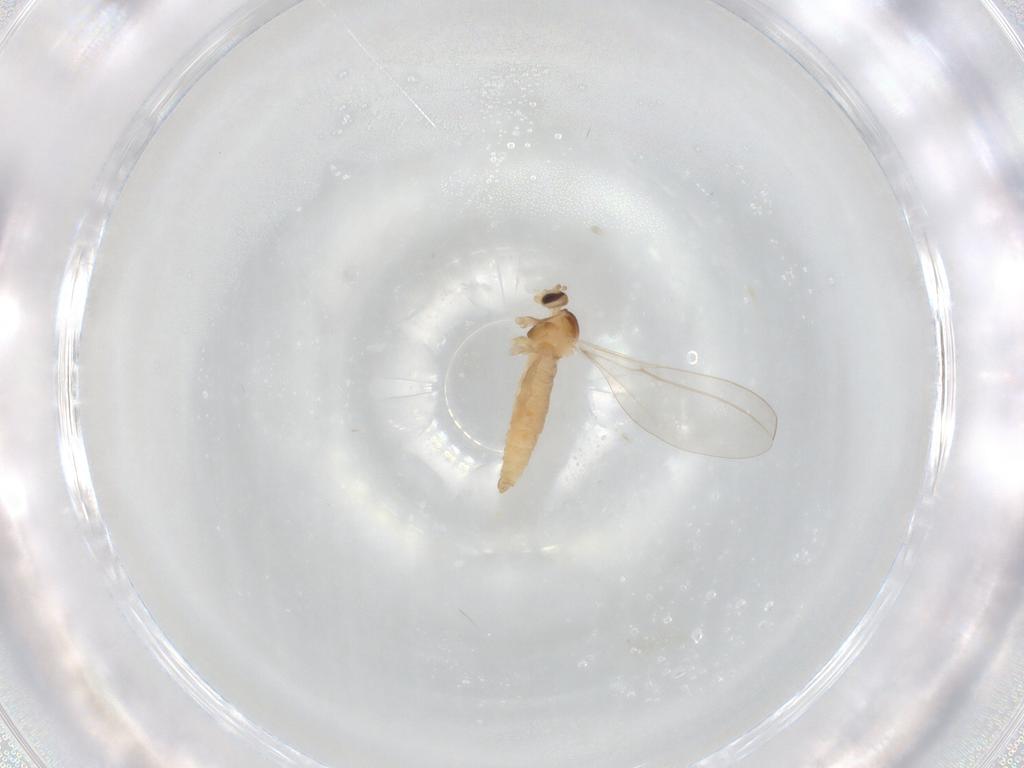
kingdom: Animalia
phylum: Arthropoda
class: Insecta
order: Diptera
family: Cecidomyiidae
